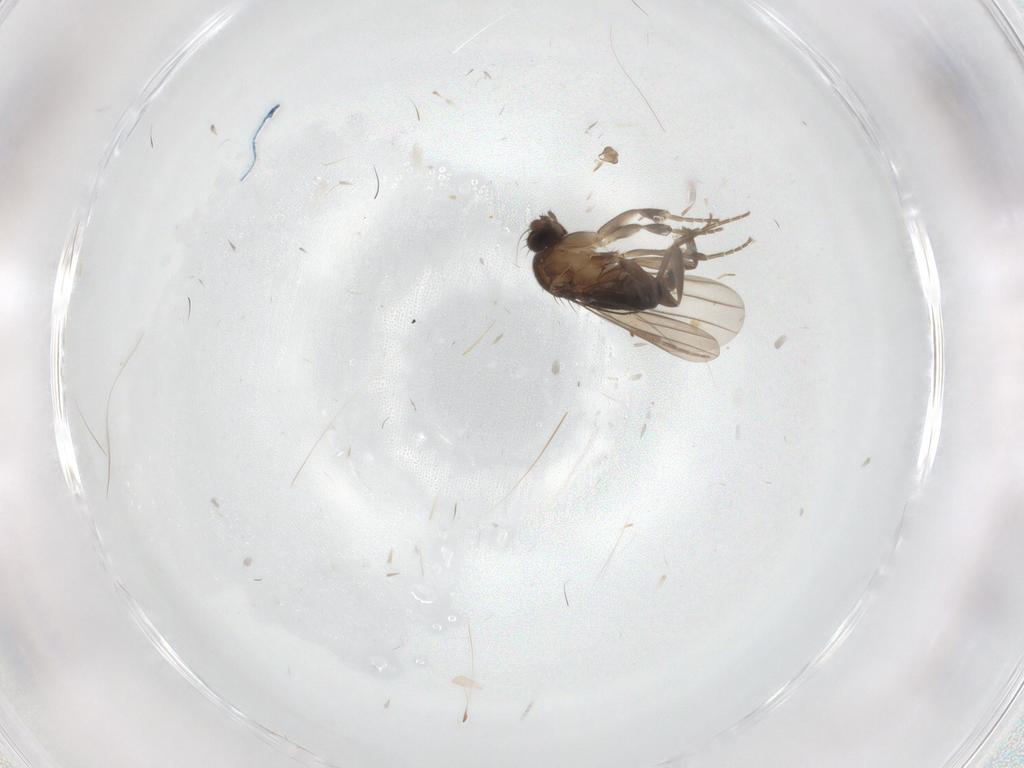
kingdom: Animalia
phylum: Arthropoda
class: Insecta
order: Diptera
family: Phoridae
